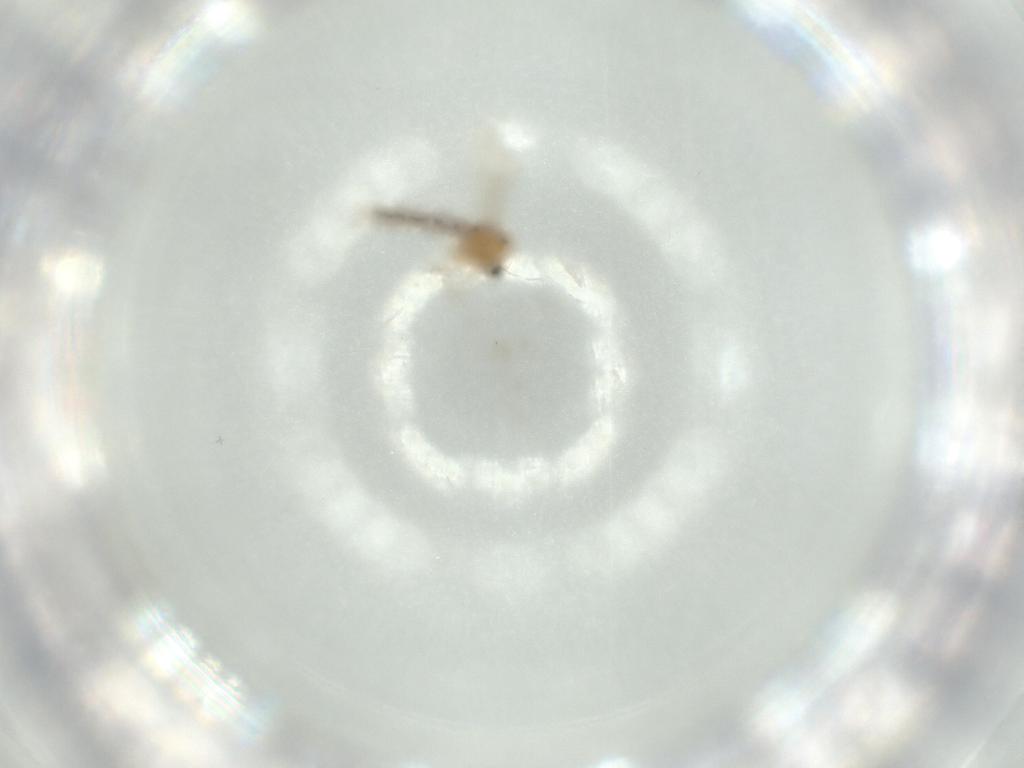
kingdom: Animalia
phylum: Arthropoda
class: Insecta
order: Diptera
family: Chironomidae
